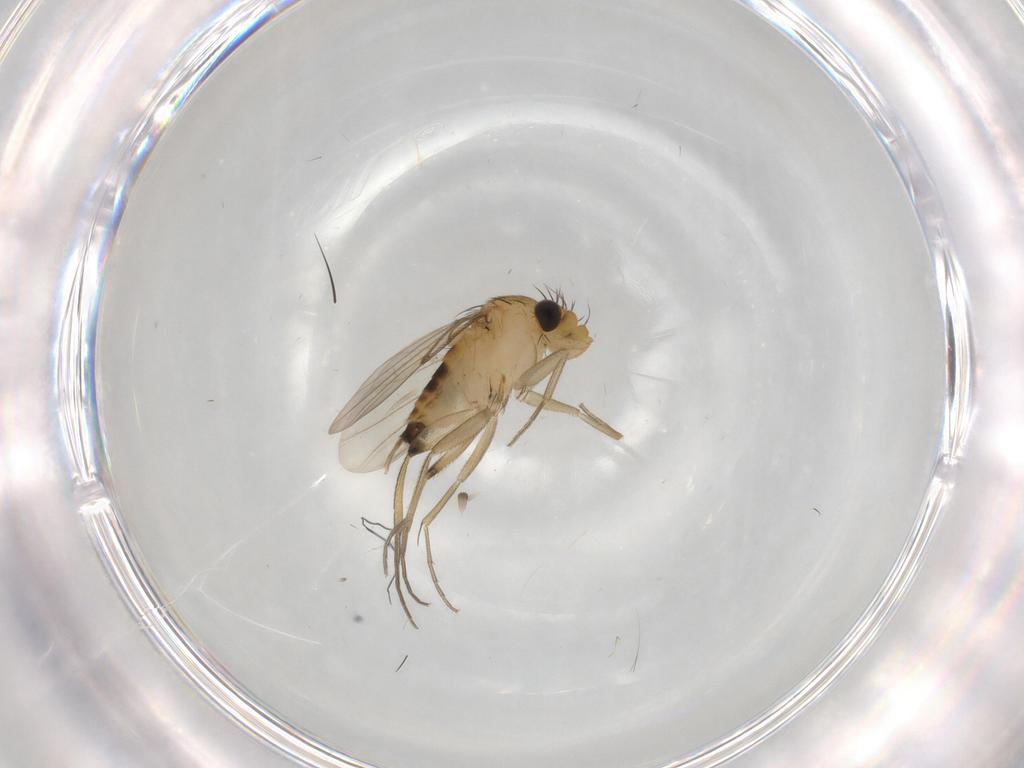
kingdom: Animalia
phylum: Arthropoda
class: Insecta
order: Diptera
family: Phoridae
